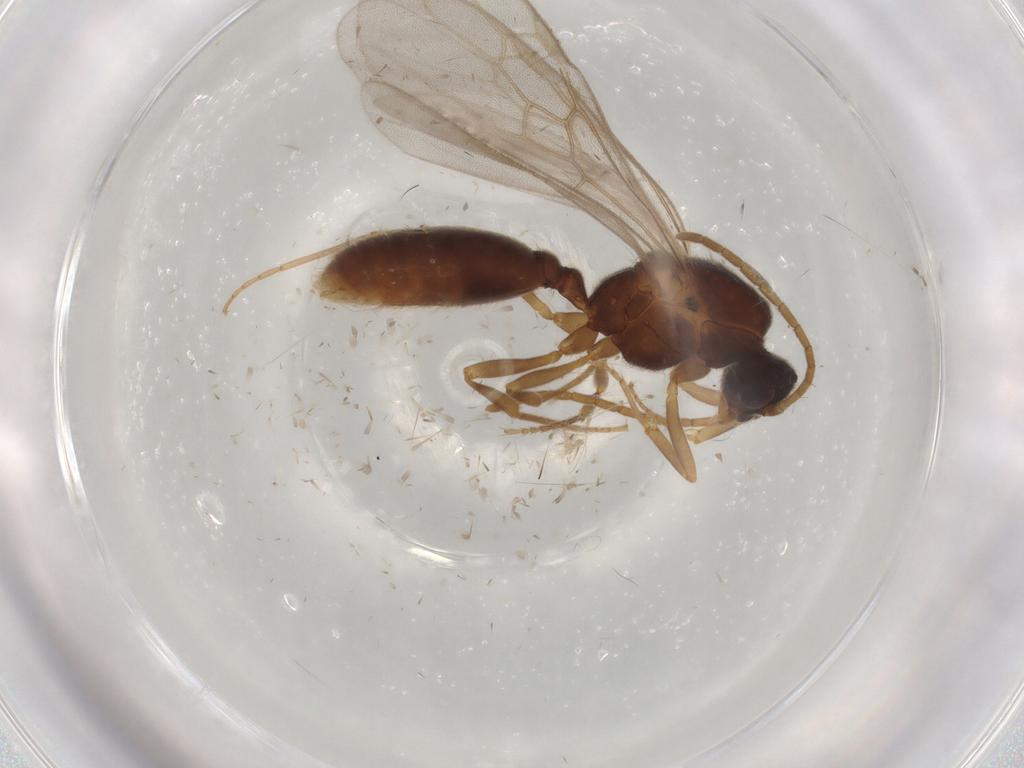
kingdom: Animalia
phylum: Arthropoda
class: Insecta
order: Hymenoptera
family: Formicidae
